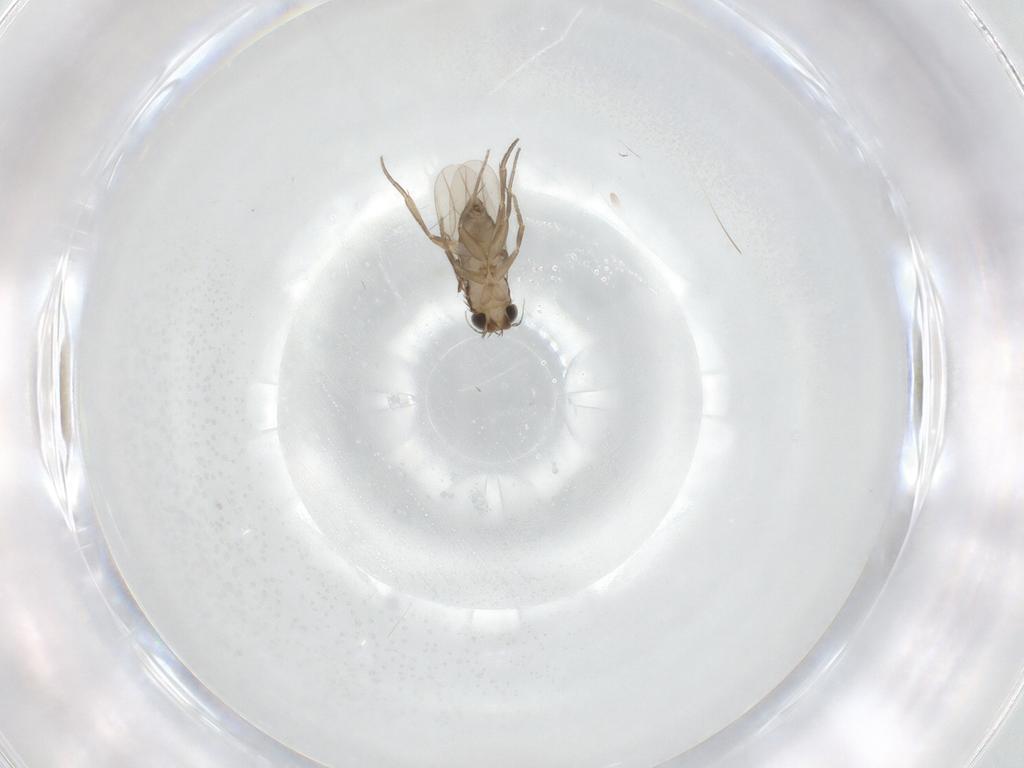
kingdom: Animalia
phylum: Arthropoda
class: Insecta
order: Diptera
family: Phoridae
